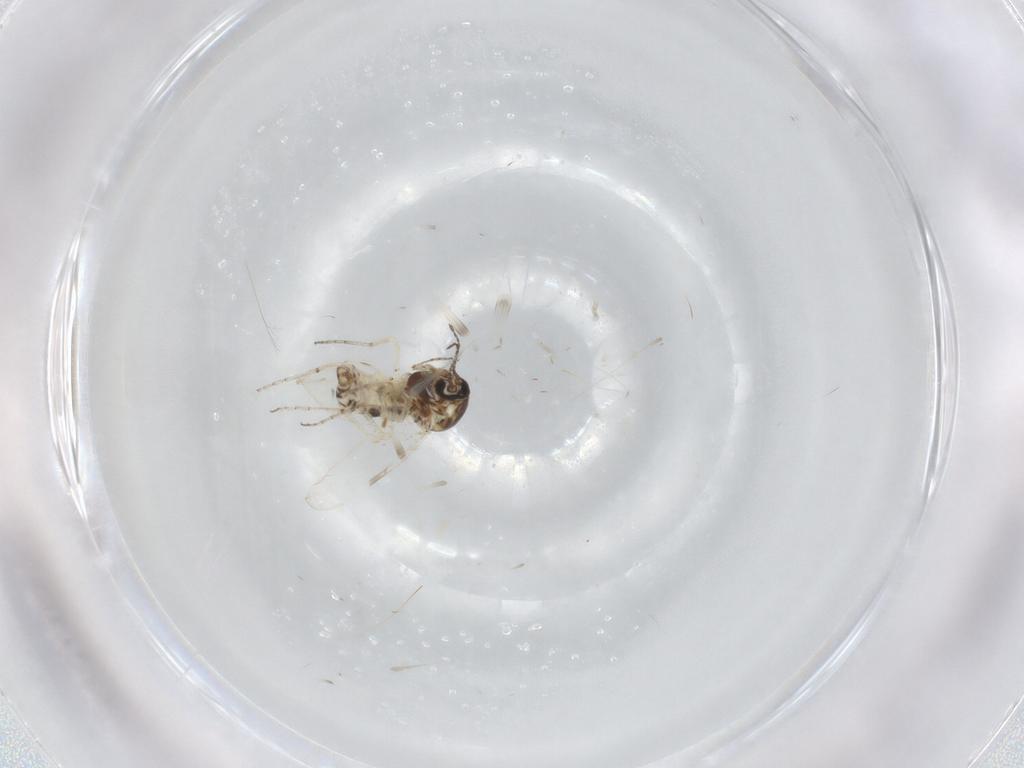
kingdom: Animalia
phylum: Arthropoda
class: Insecta
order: Diptera
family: Ceratopogonidae
